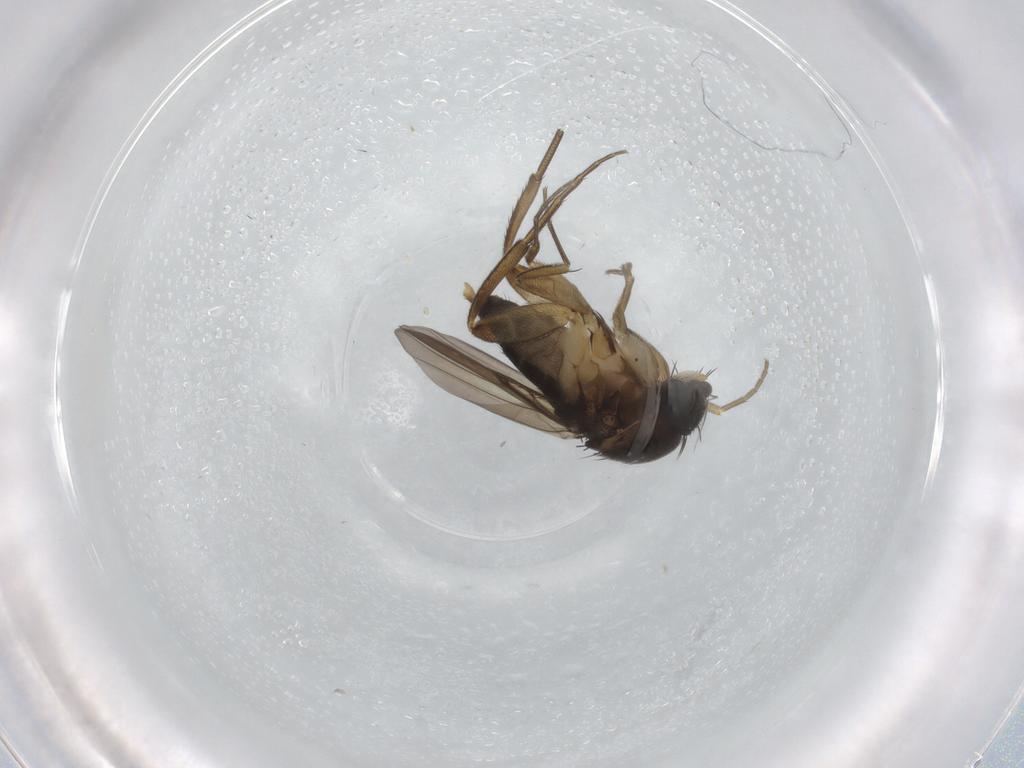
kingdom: Animalia
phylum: Arthropoda
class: Insecta
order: Diptera
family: Phoridae
